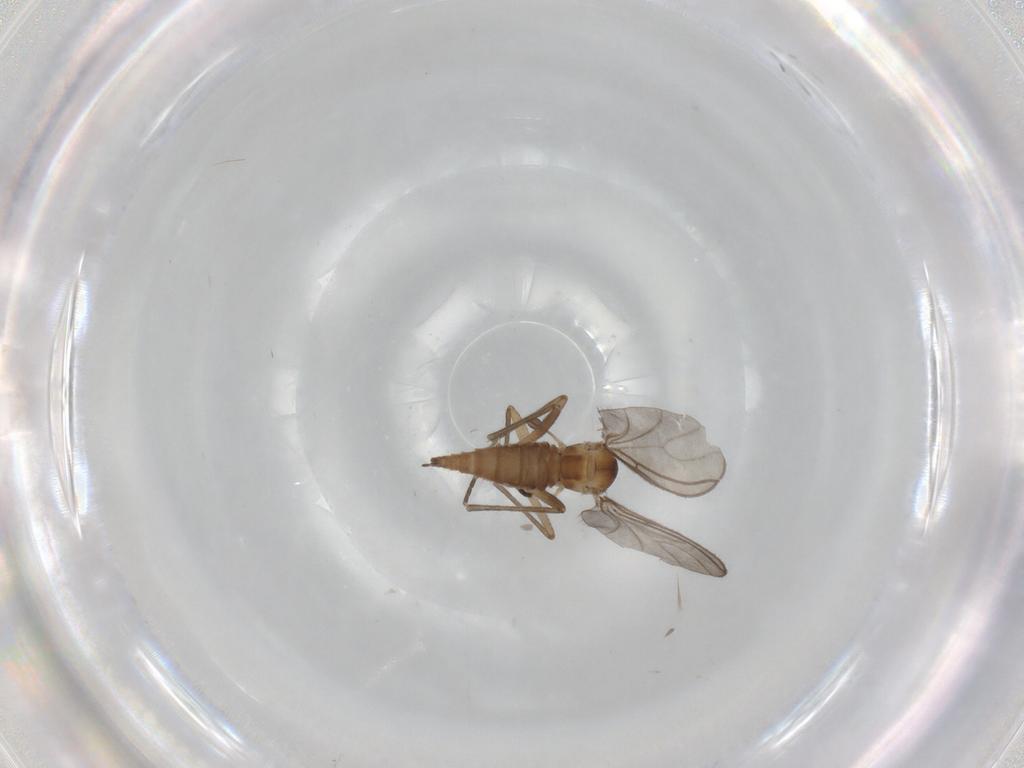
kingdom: Animalia
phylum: Arthropoda
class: Insecta
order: Diptera
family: Sciaridae
